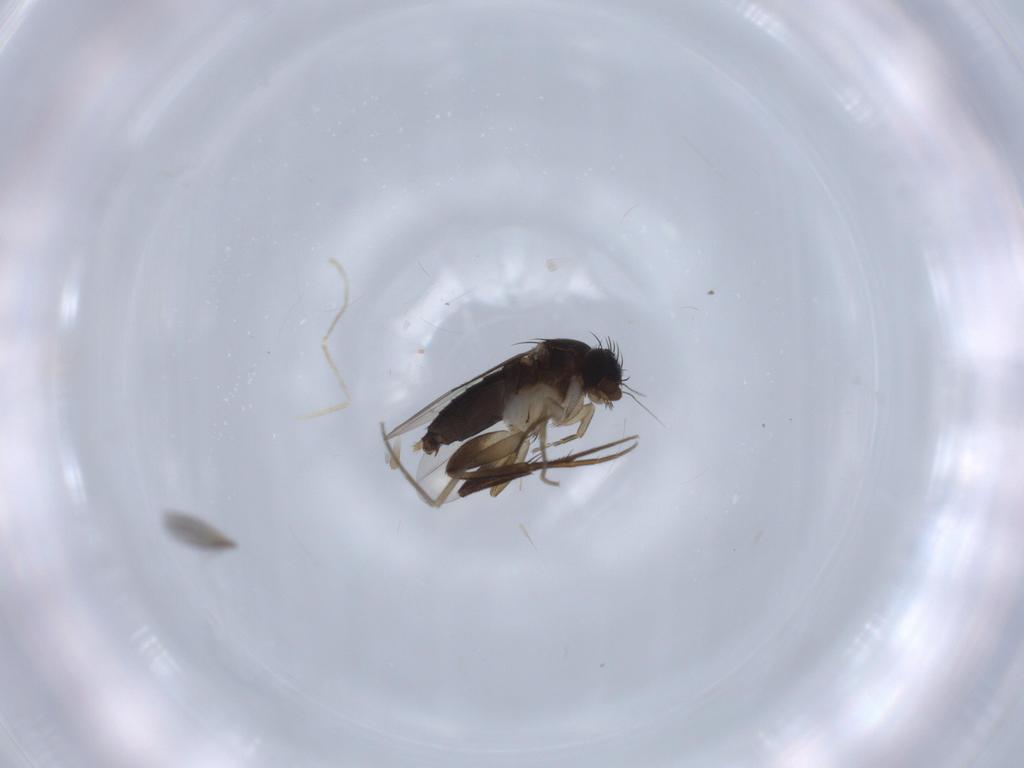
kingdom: Animalia
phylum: Arthropoda
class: Insecta
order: Diptera
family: Phoridae
